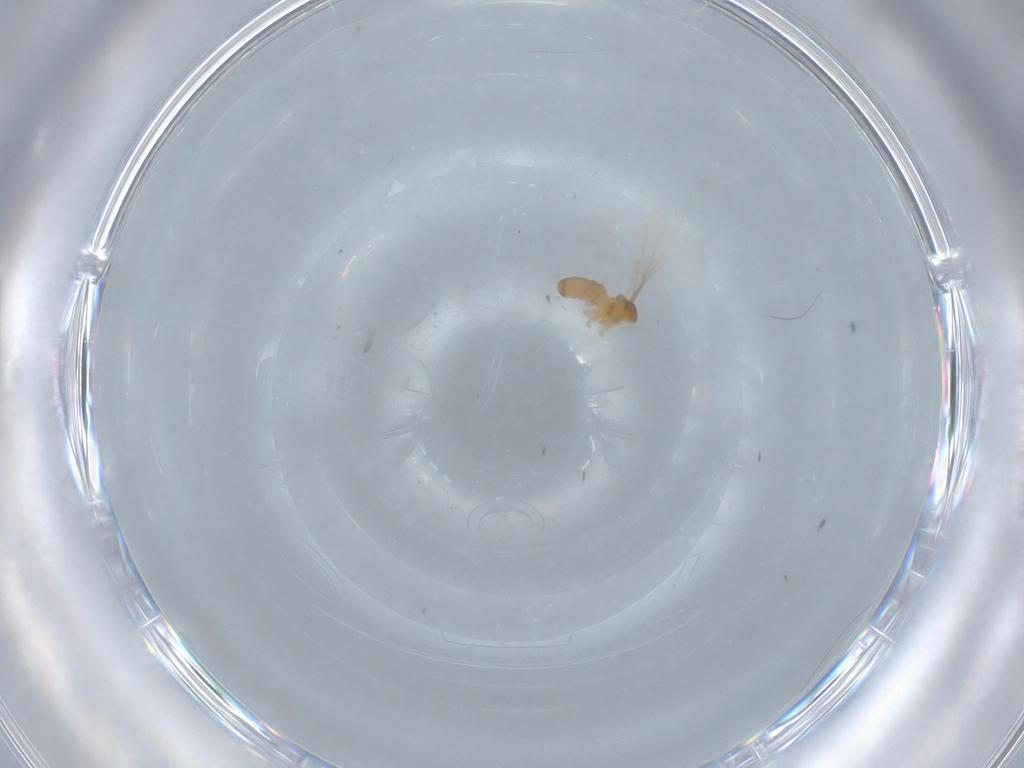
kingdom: Animalia
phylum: Arthropoda
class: Insecta
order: Diptera
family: Cecidomyiidae
